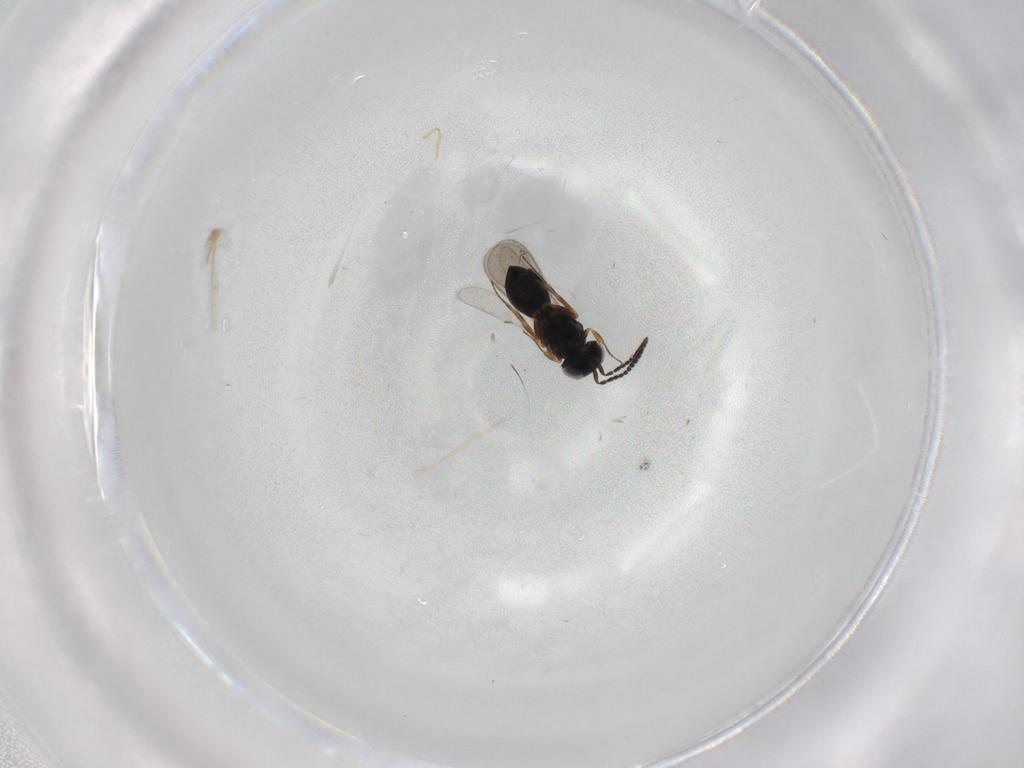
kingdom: Animalia
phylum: Arthropoda
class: Insecta
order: Hymenoptera
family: Scelionidae
